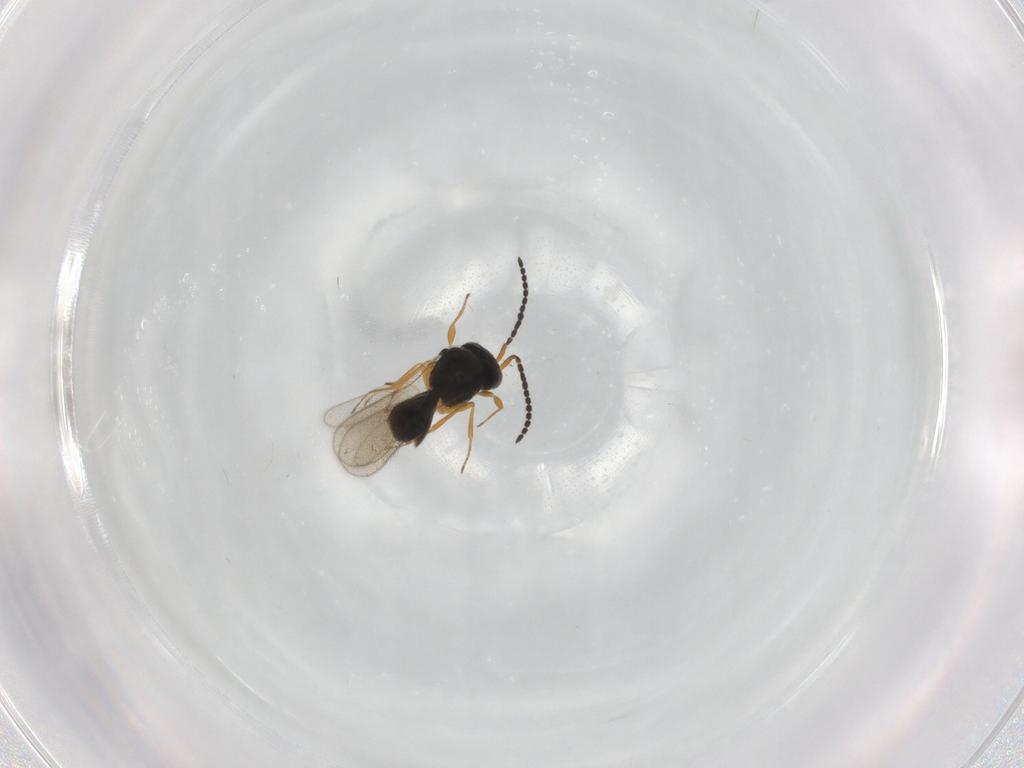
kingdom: Animalia
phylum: Arthropoda
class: Insecta
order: Hymenoptera
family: Scelionidae
